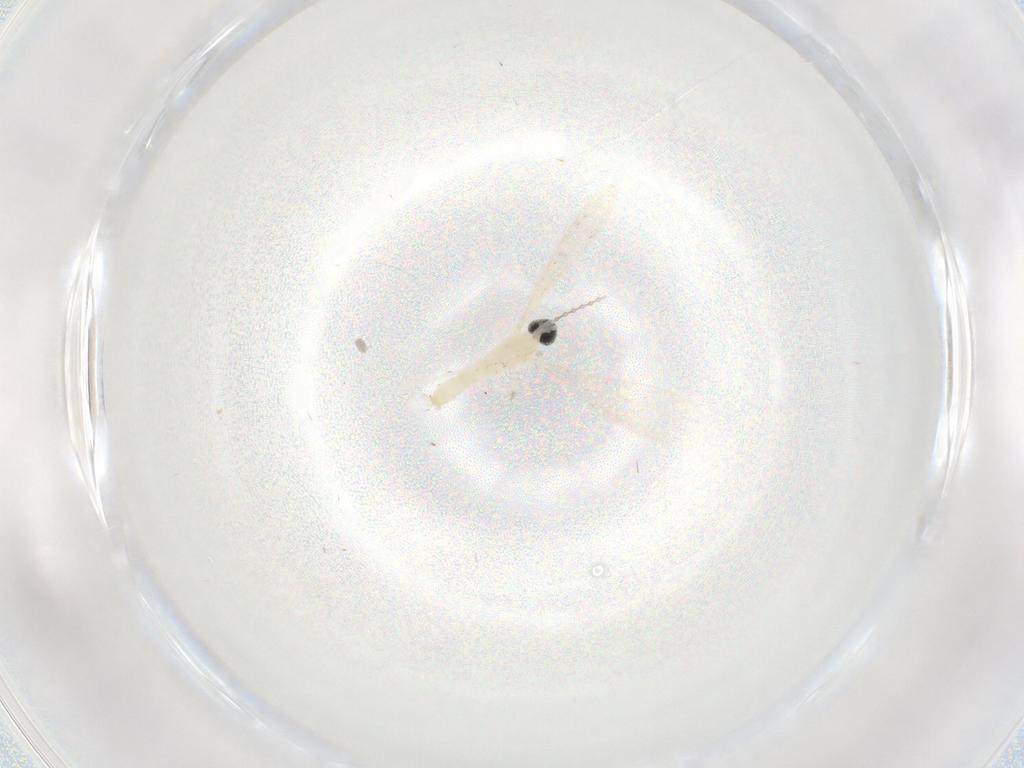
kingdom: Animalia
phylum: Arthropoda
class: Insecta
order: Diptera
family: Cecidomyiidae
